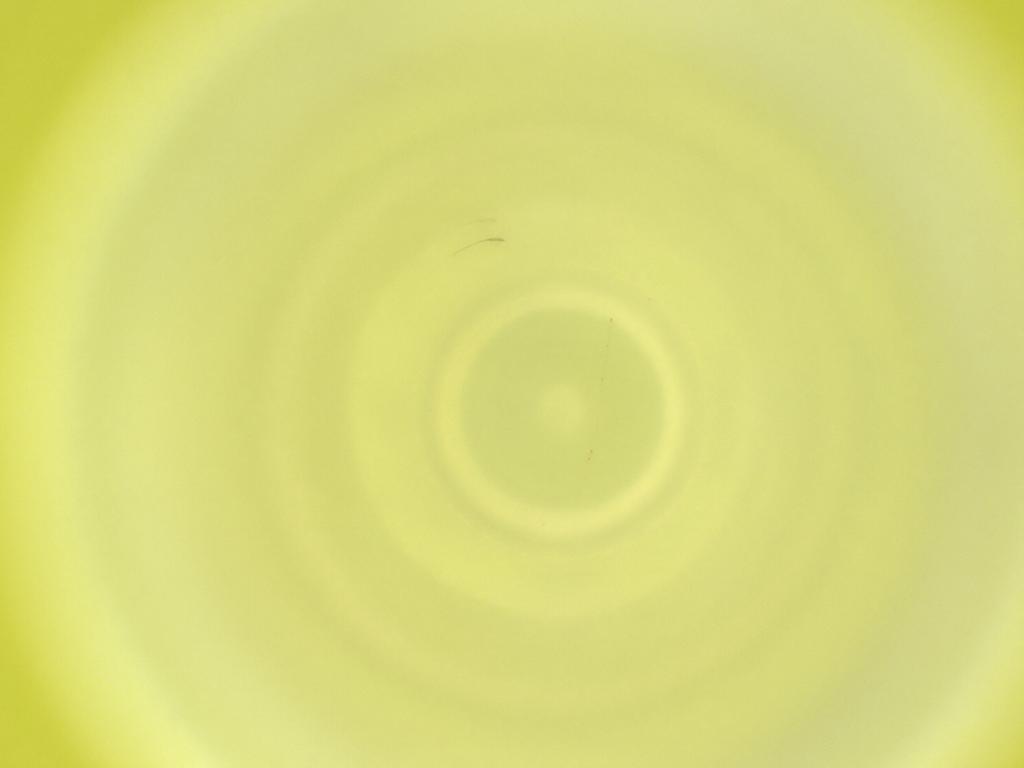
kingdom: Animalia
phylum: Arthropoda
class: Insecta
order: Diptera
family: Cecidomyiidae
